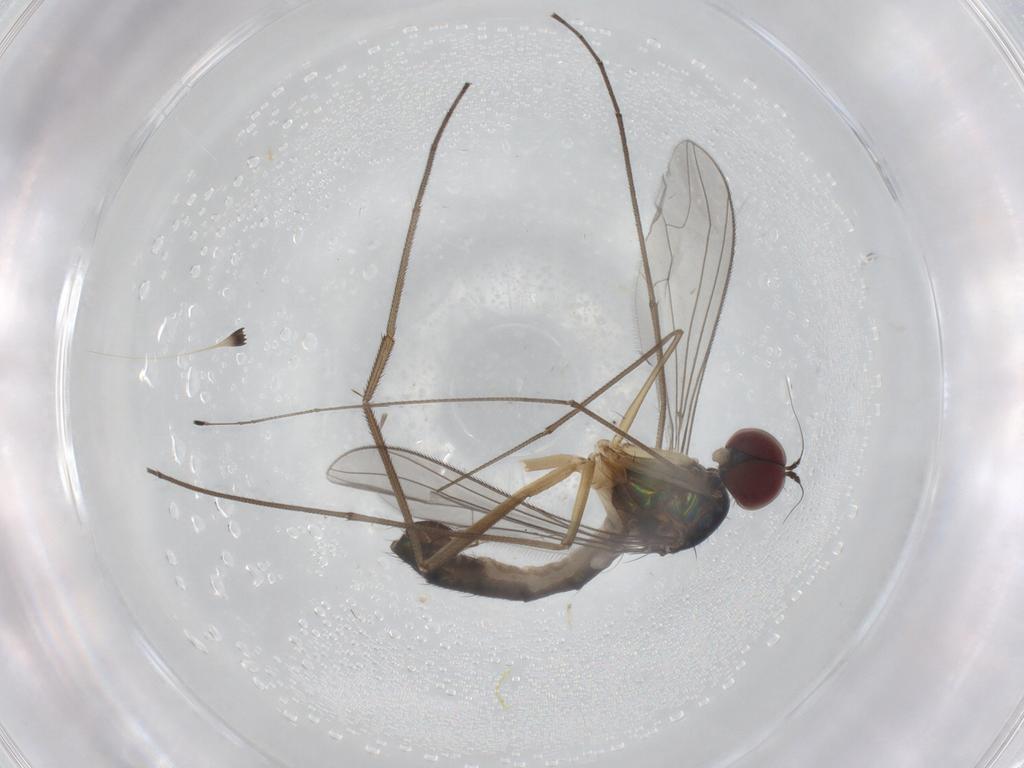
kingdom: Animalia
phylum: Arthropoda
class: Insecta
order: Diptera
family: Dolichopodidae
